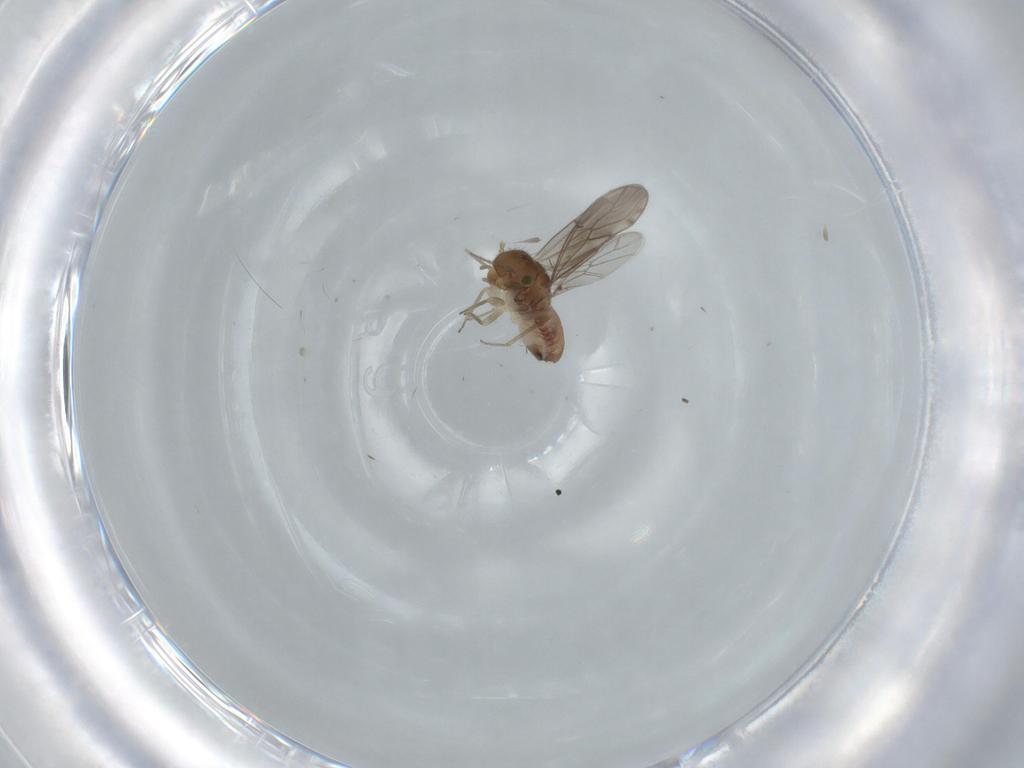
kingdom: Animalia
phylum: Arthropoda
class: Insecta
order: Psocodea
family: Ectopsocidae
